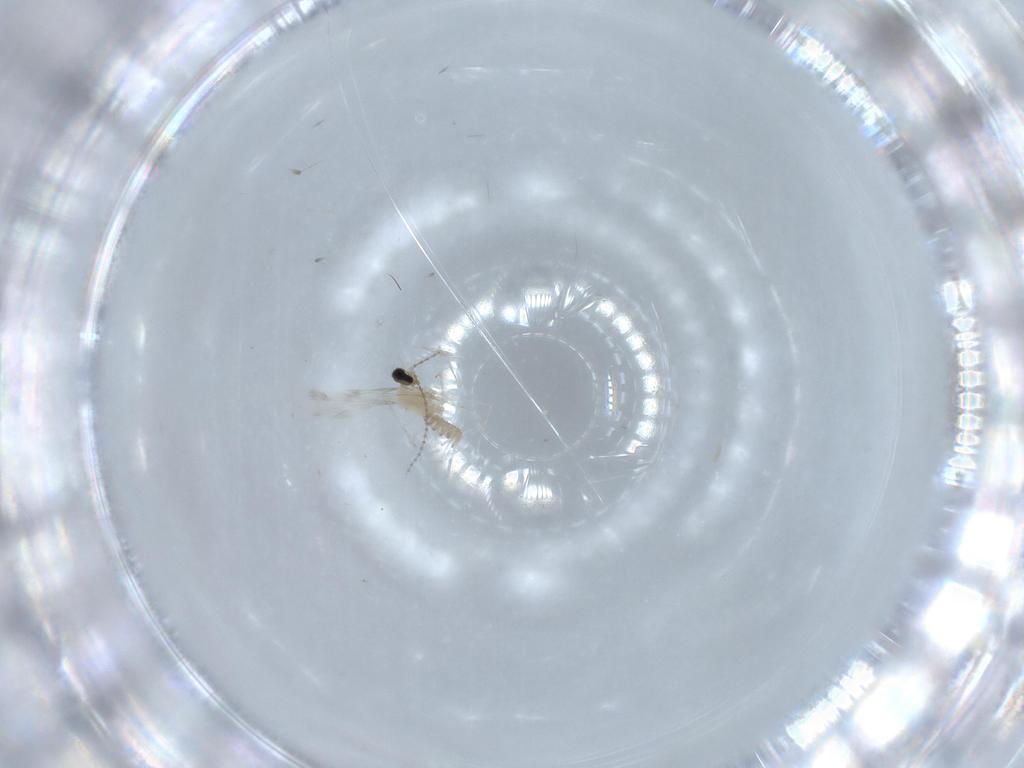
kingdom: Animalia
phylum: Arthropoda
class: Insecta
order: Diptera
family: Cecidomyiidae
